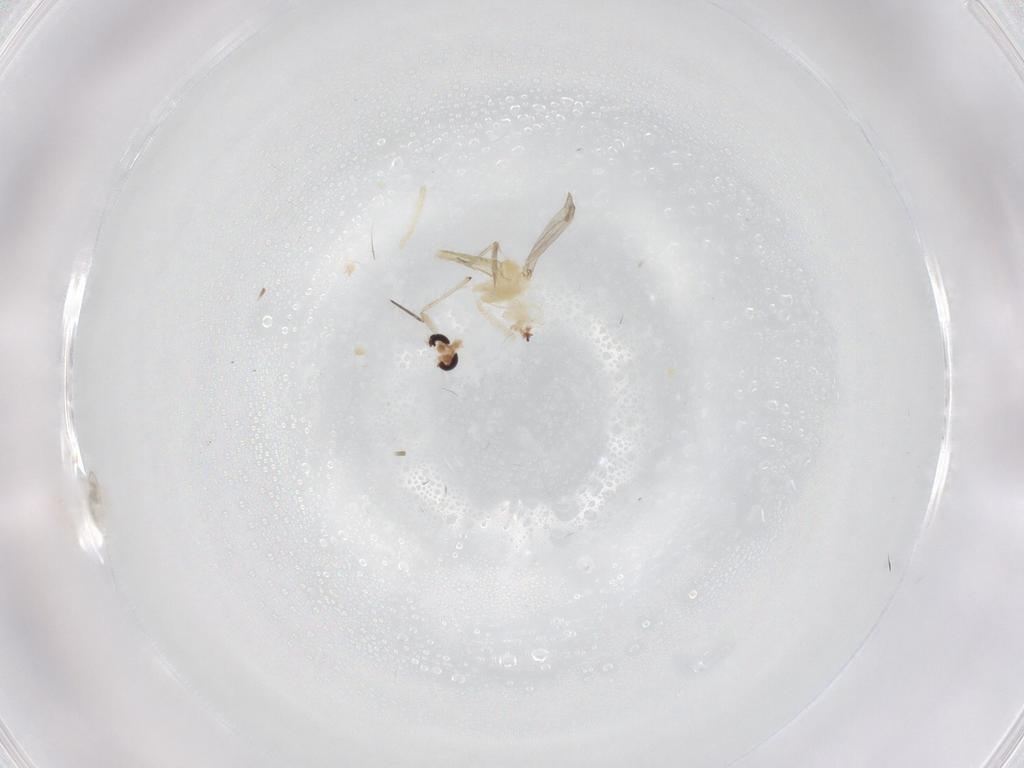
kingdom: Animalia
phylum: Arthropoda
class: Insecta
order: Diptera
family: Chironomidae
